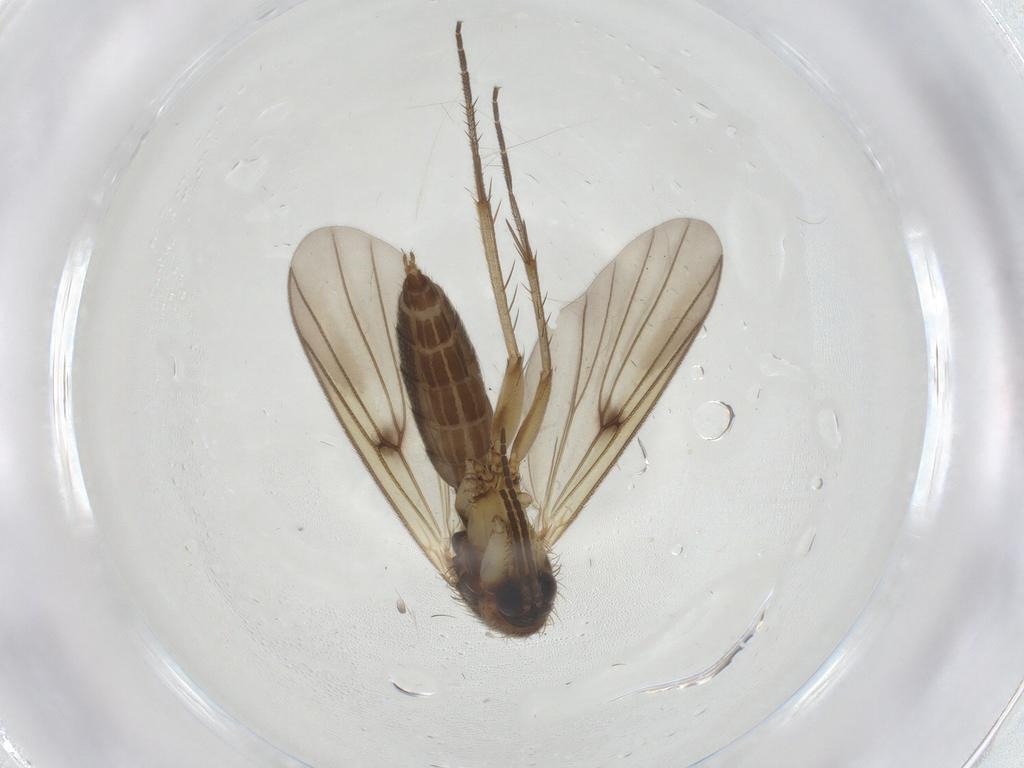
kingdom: Animalia
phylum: Arthropoda
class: Insecta
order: Diptera
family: Mycetophilidae
